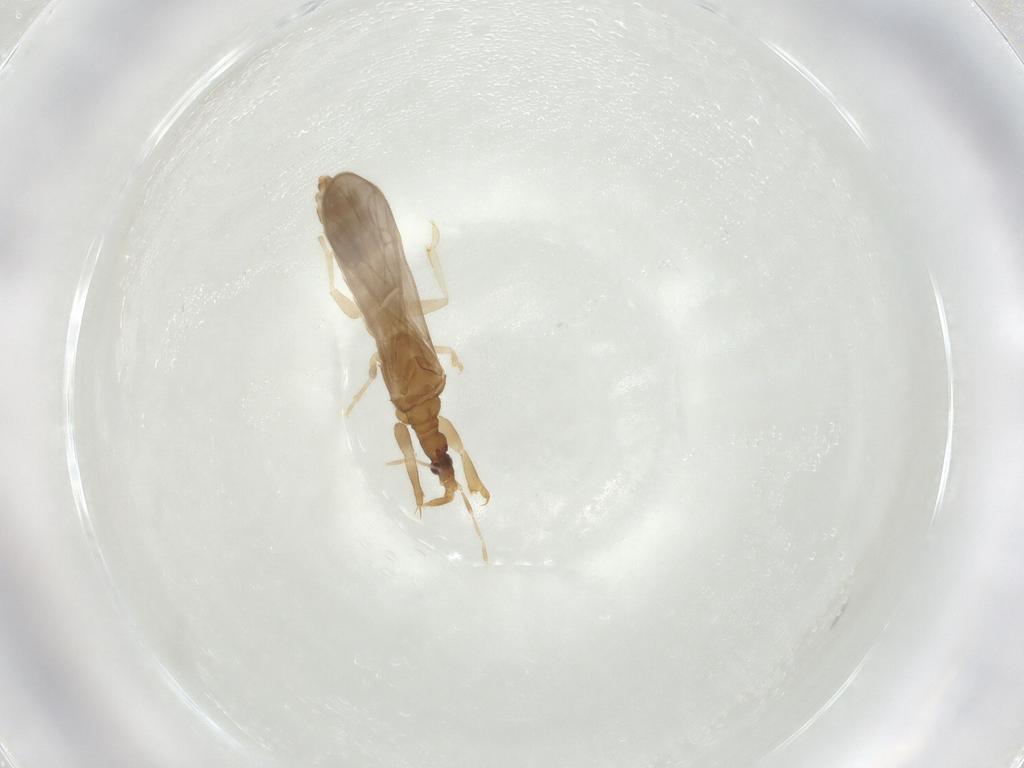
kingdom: Animalia
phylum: Arthropoda
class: Insecta
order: Hemiptera
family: Enicocephalidae
